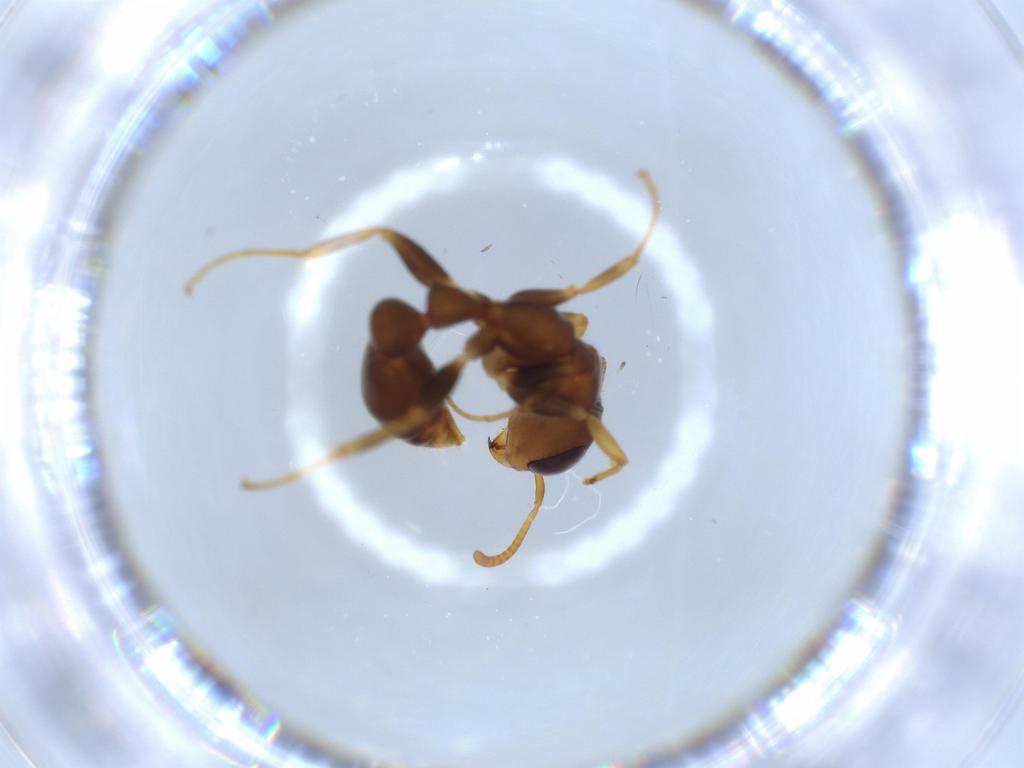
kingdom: Animalia
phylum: Arthropoda
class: Insecta
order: Hymenoptera
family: Formicidae
